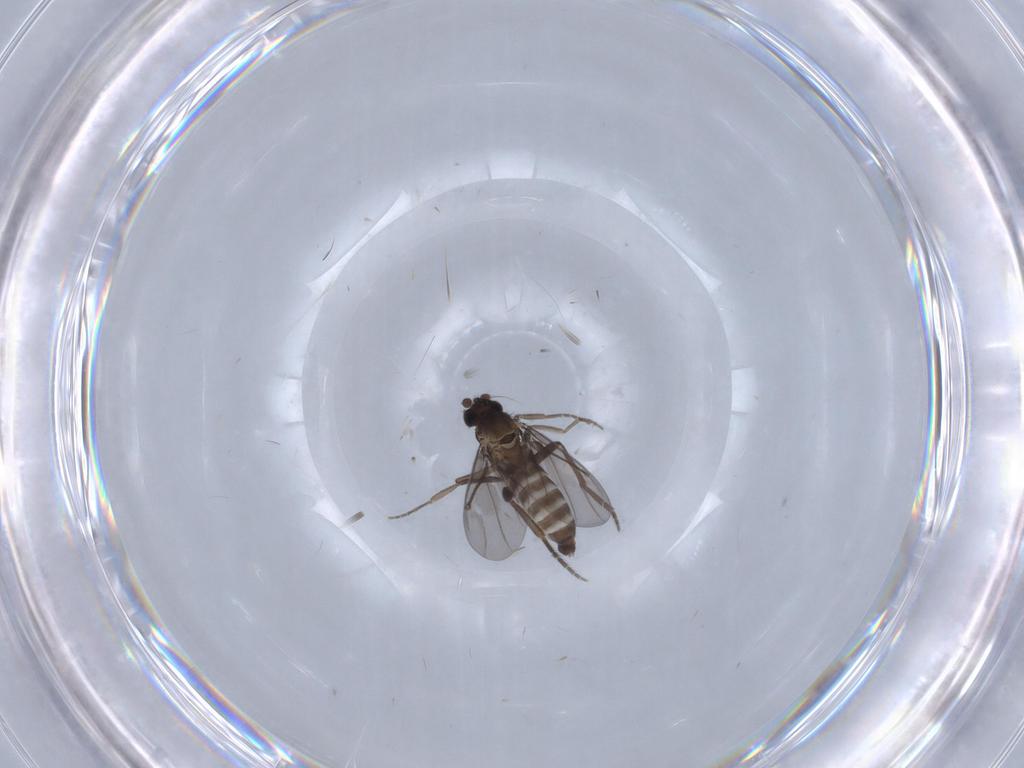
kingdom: Animalia
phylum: Arthropoda
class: Insecta
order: Diptera
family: Phoridae
